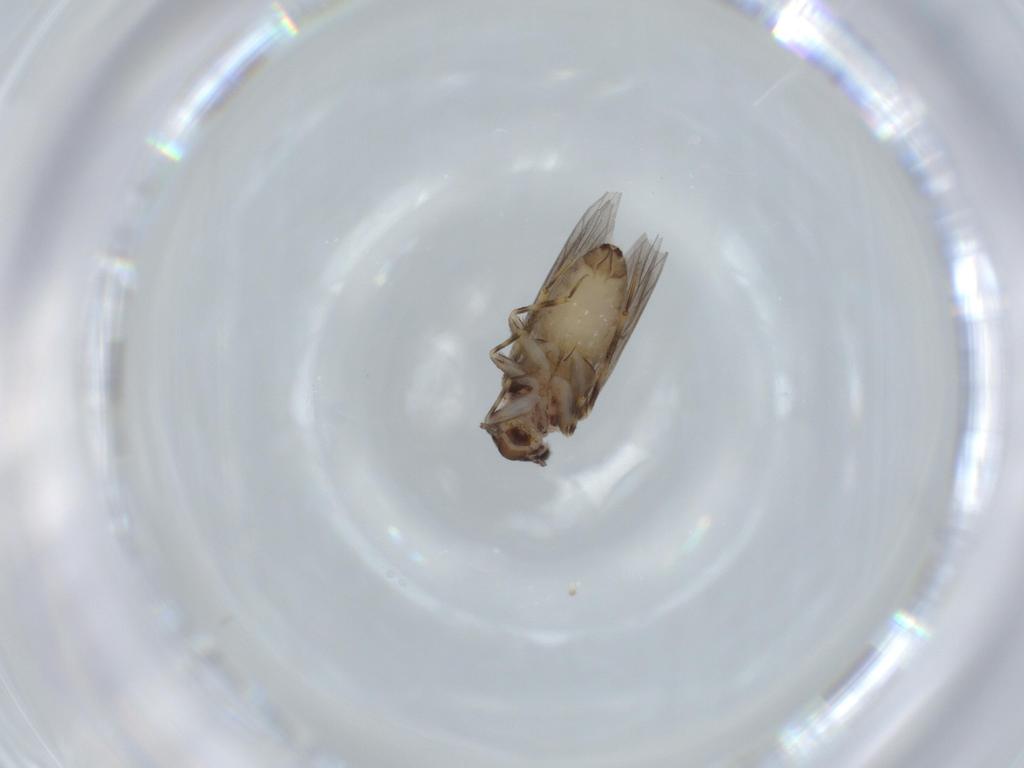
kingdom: Animalia
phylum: Arthropoda
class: Insecta
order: Psocodea
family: Lepidopsocidae
